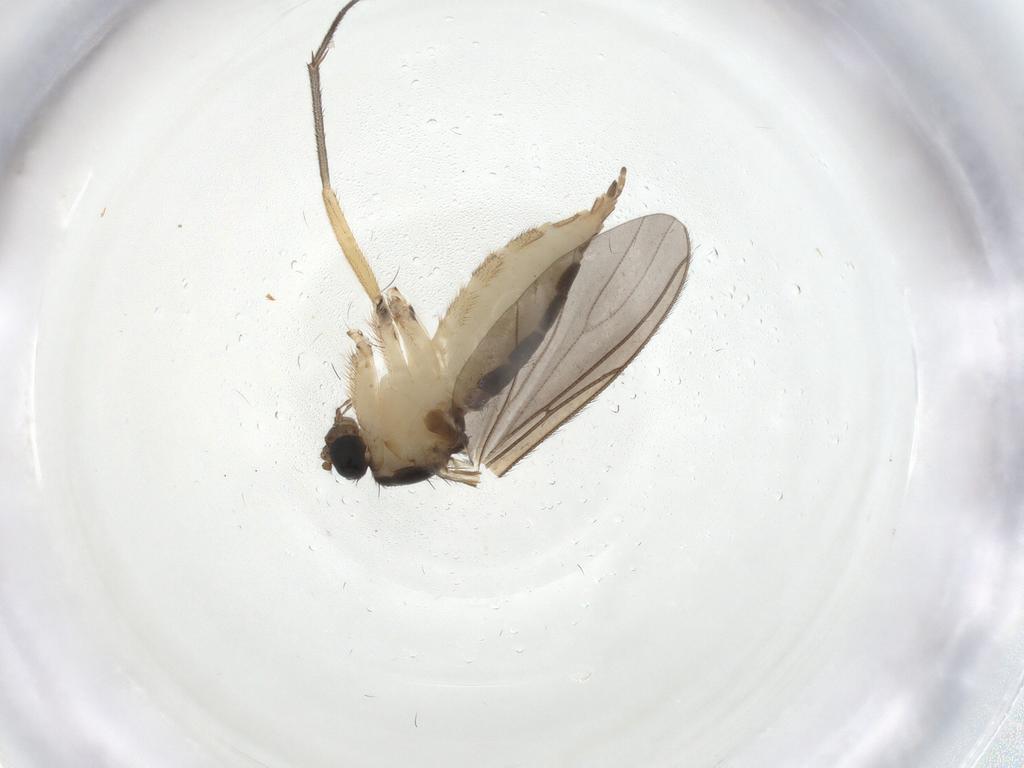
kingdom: Animalia
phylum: Arthropoda
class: Insecta
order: Diptera
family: Sciaridae
